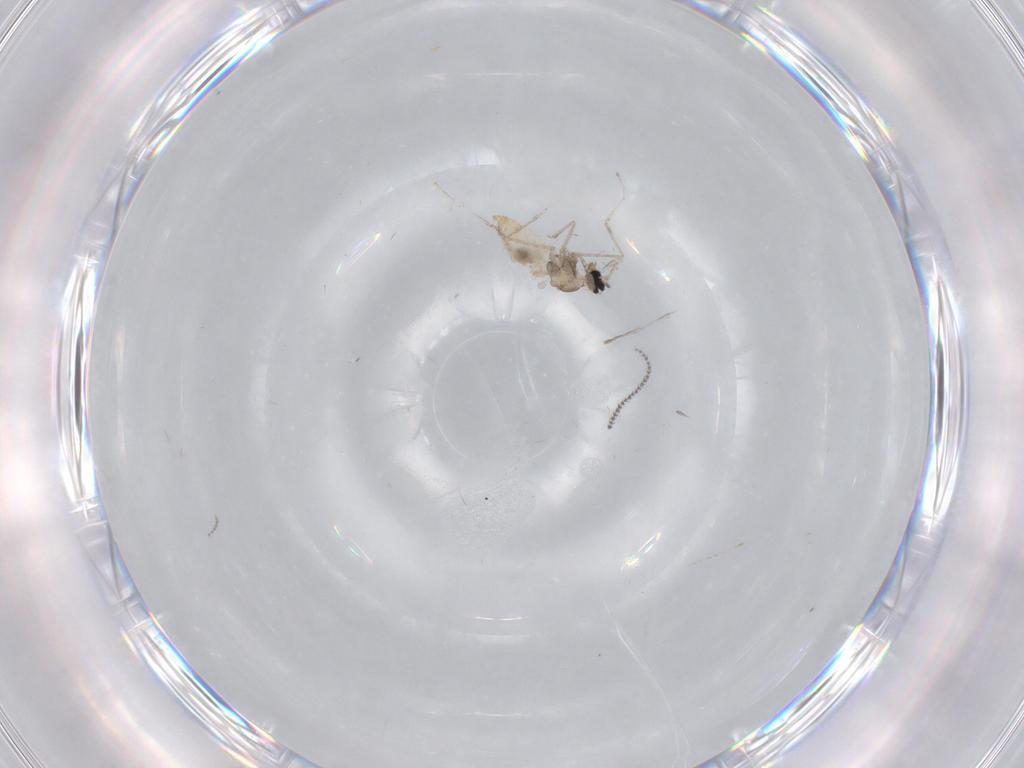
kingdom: Animalia
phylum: Arthropoda
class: Insecta
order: Diptera
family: Cecidomyiidae
